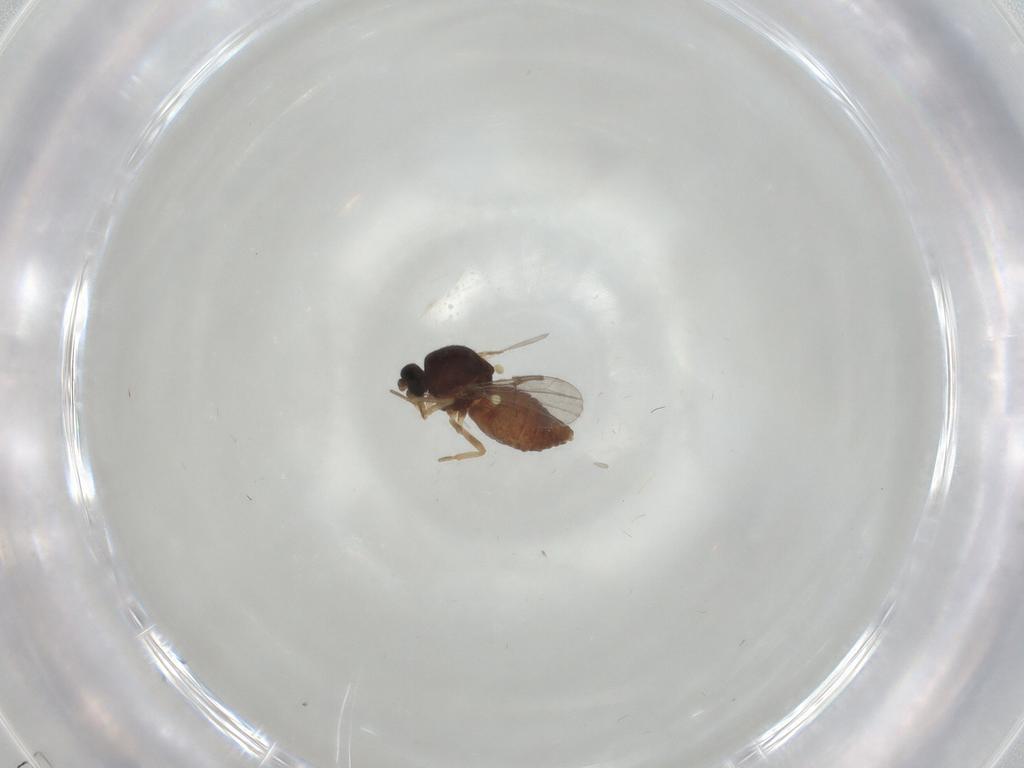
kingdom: Animalia
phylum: Arthropoda
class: Insecta
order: Diptera
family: Ceratopogonidae
